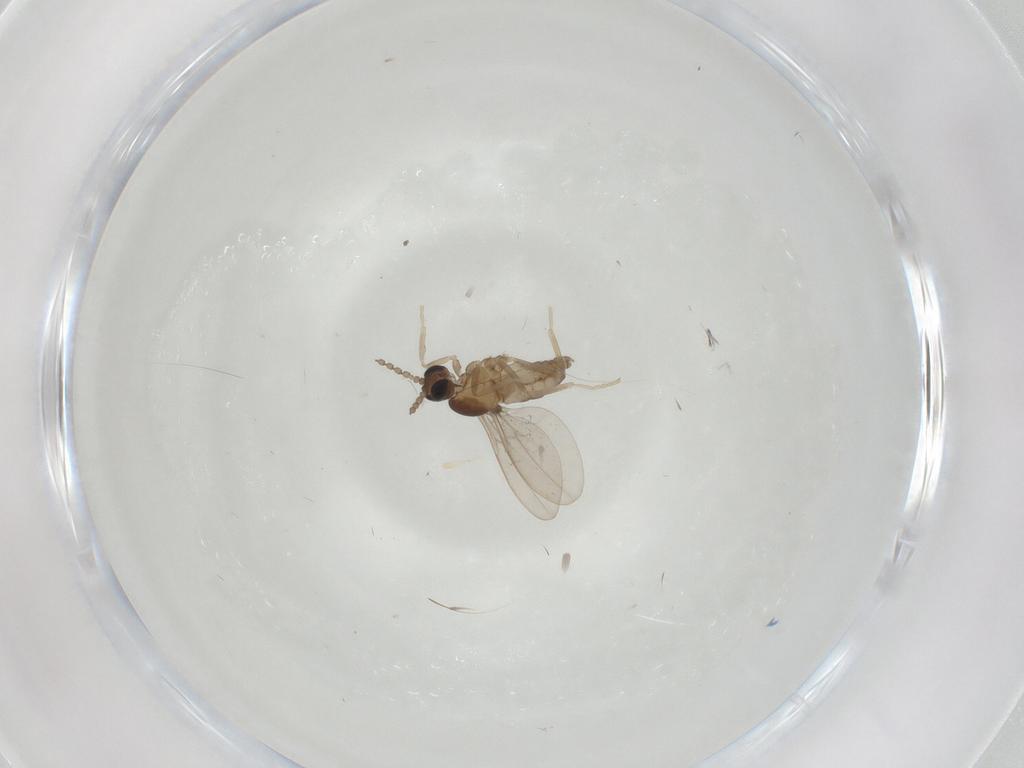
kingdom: Animalia
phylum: Arthropoda
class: Insecta
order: Diptera
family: Cecidomyiidae
